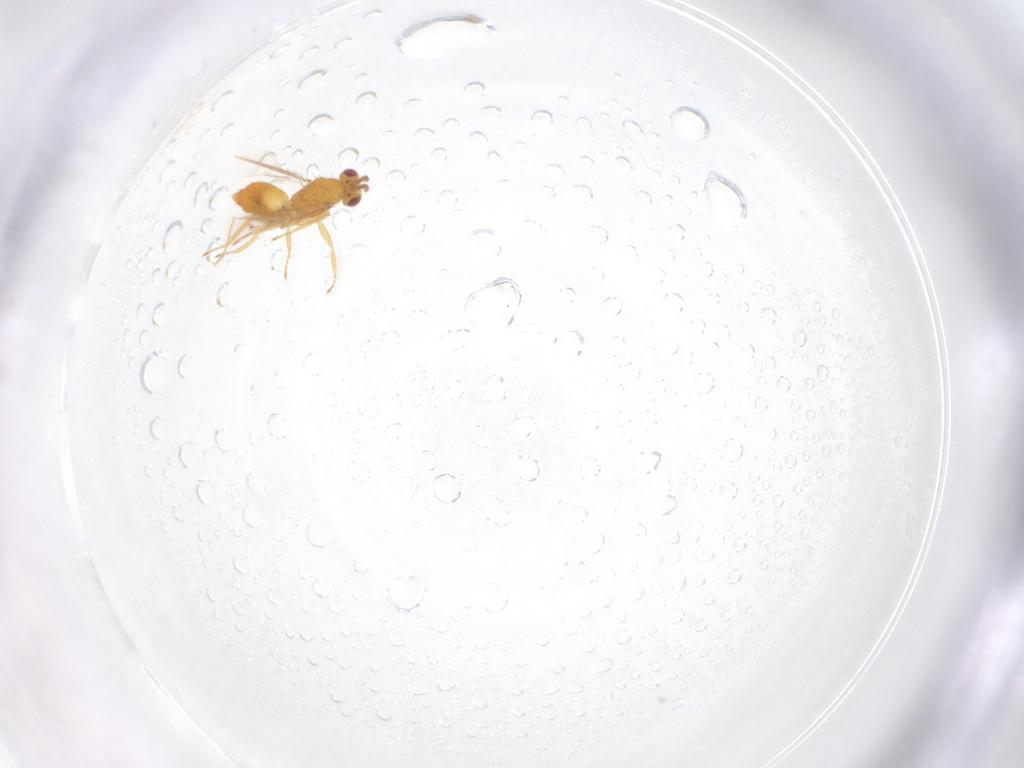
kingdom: Animalia
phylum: Arthropoda
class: Insecta
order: Hymenoptera
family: Eulophidae
